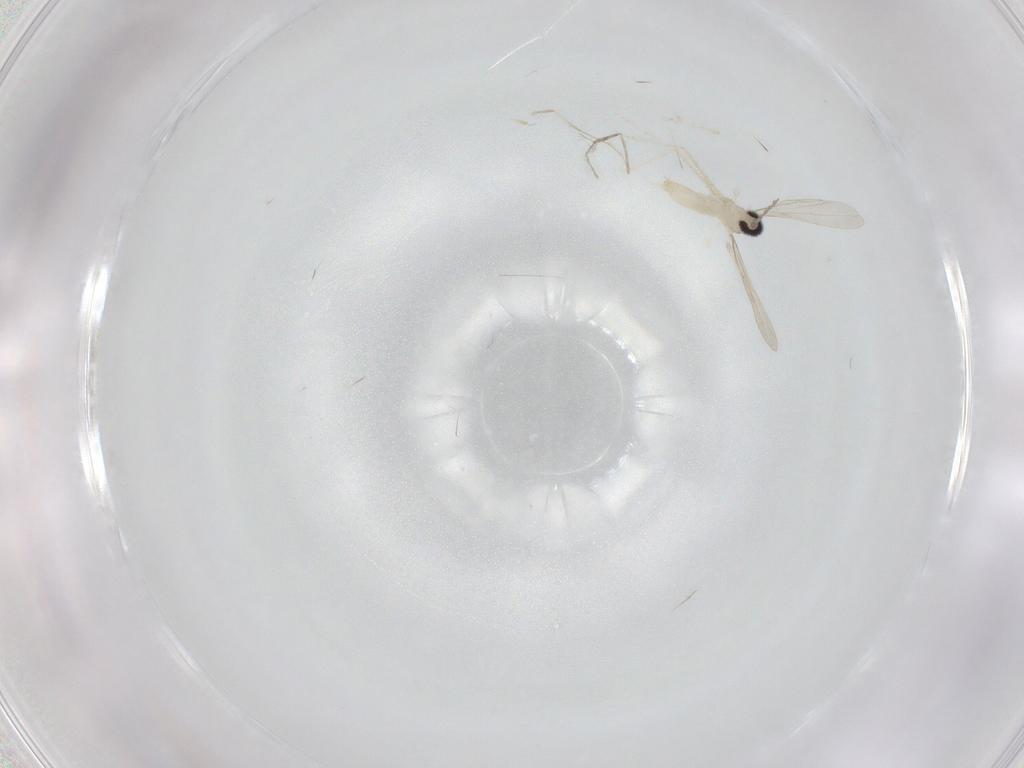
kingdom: Animalia
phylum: Arthropoda
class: Insecta
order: Diptera
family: Cecidomyiidae
